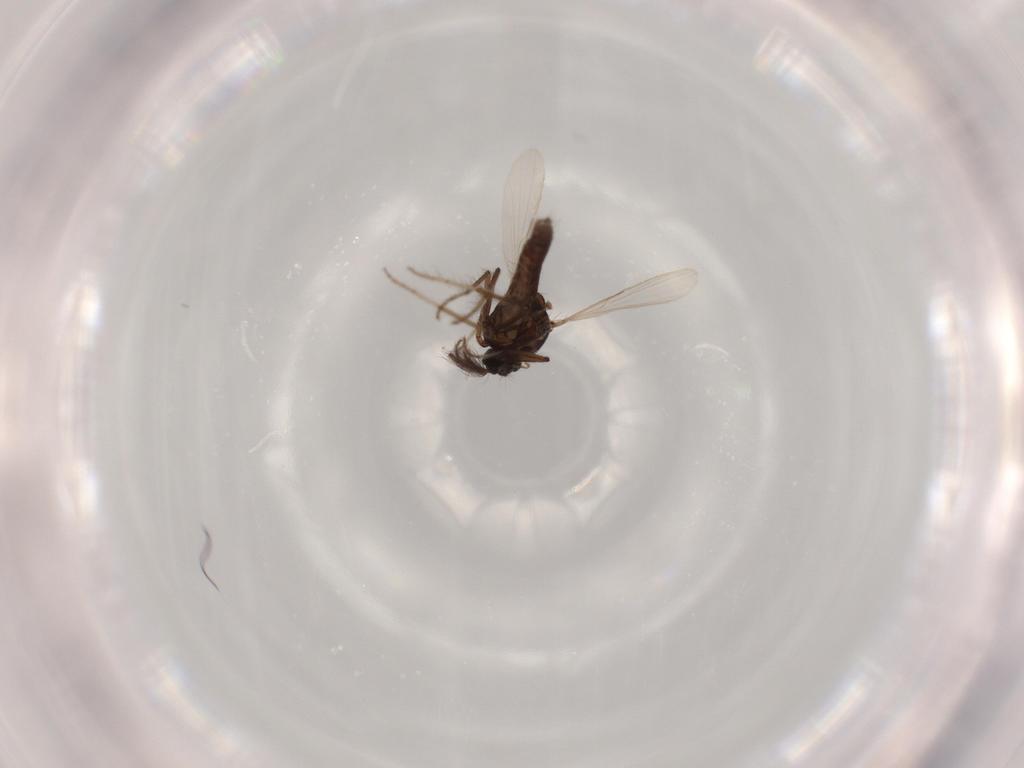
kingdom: Animalia
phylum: Arthropoda
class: Insecta
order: Diptera
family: Chironomidae
